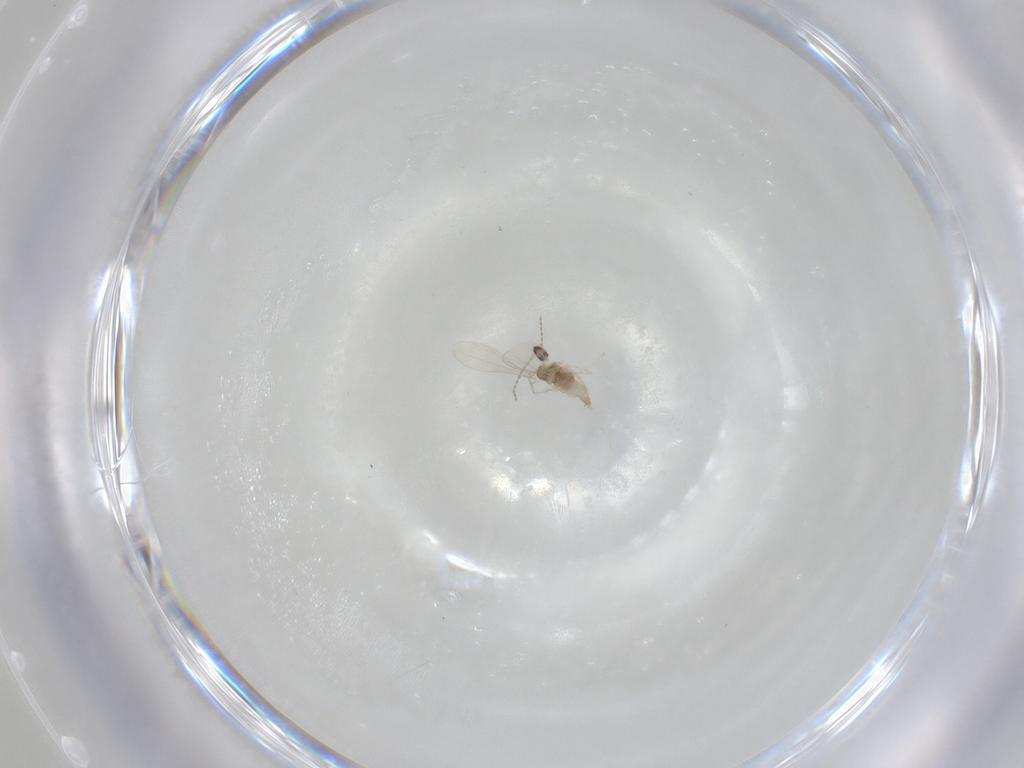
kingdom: Animalia
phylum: Arthropoda
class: Insecta
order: Diptera
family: Cecidomyiidae
